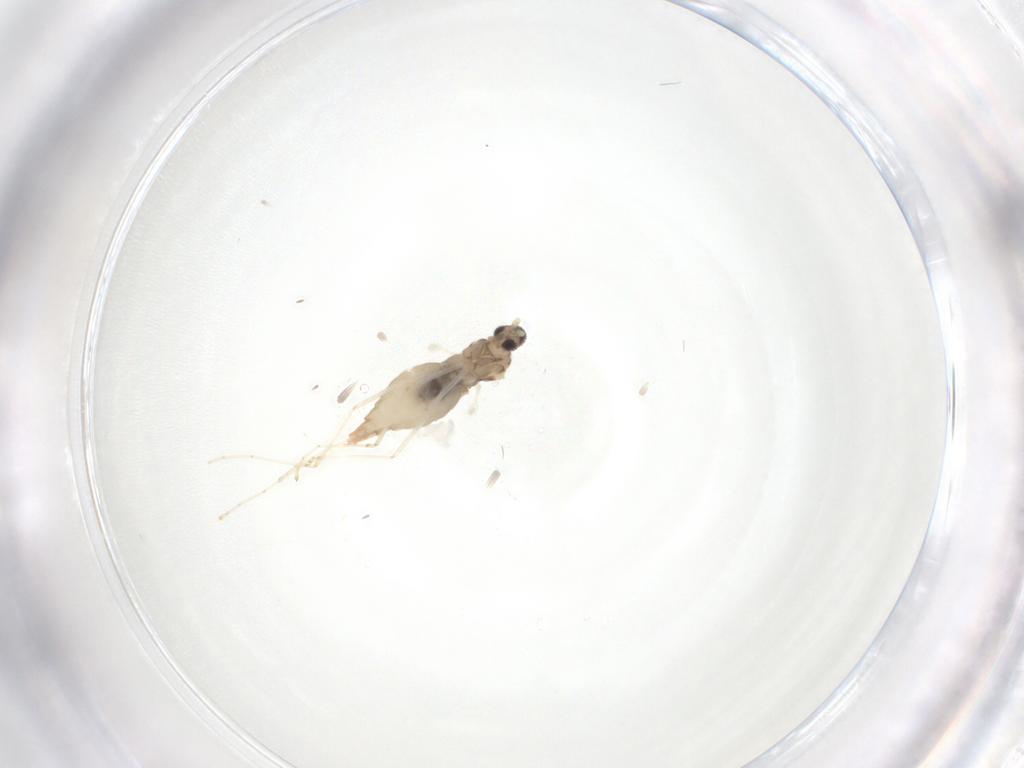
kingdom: Animalia
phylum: Arthropoda
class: Insecta
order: Diptera
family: Cecidomyiidae
